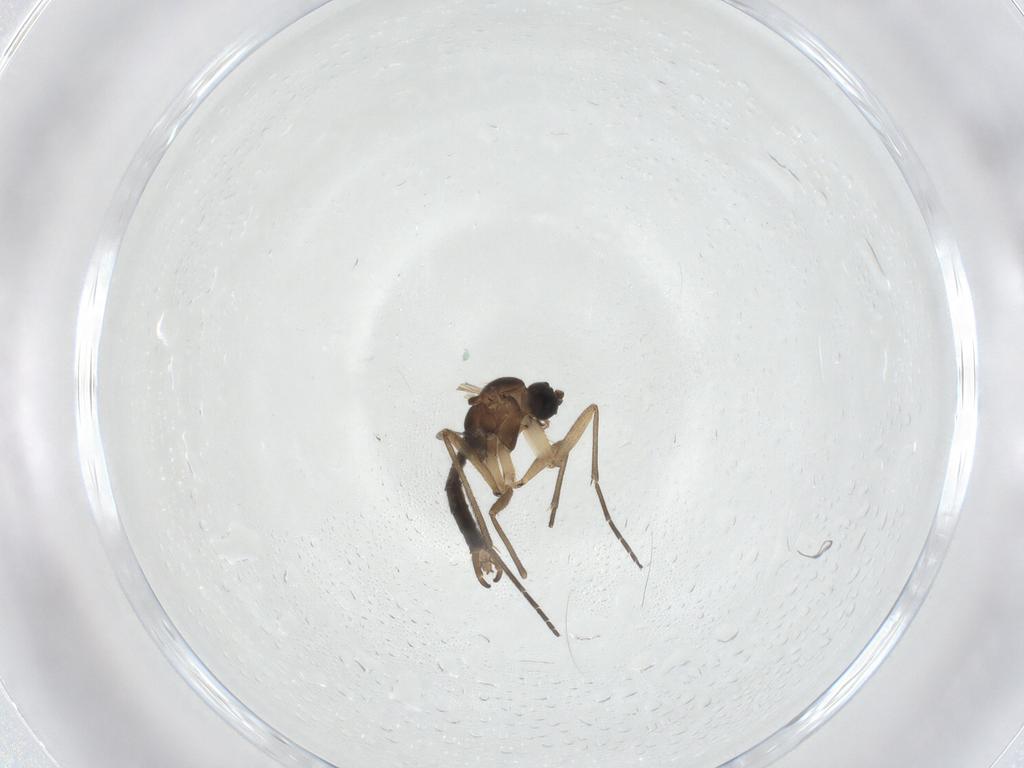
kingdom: Animalia
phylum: Arthropoda
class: Insecta
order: Diptera
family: Sciaridae
